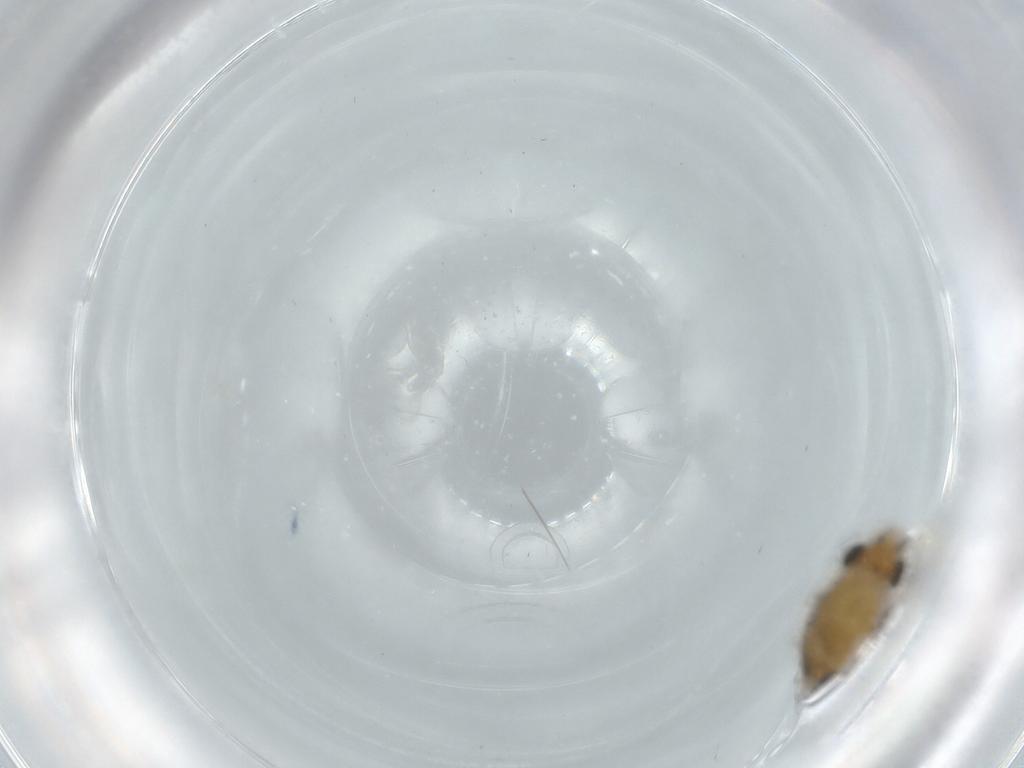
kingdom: Animalia
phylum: Arthropoda
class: Insecta
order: Diptera
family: Phoridae
